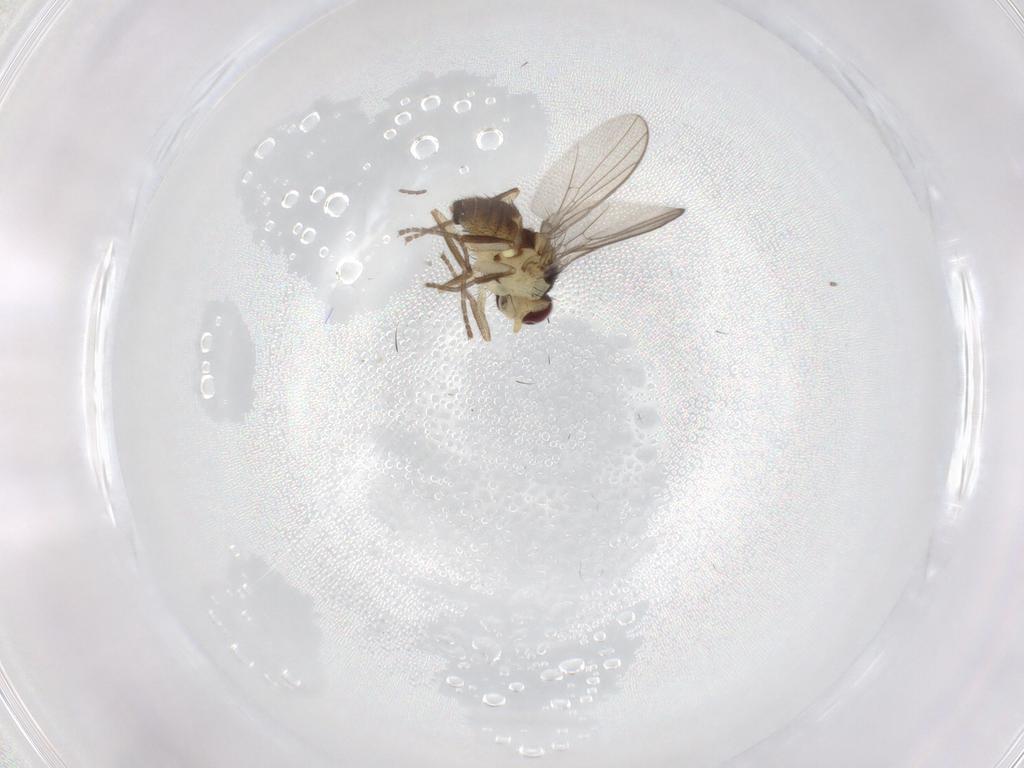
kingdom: Animalia
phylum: Arthropoda
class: Insecta
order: Diptera
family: Agromyzidae
